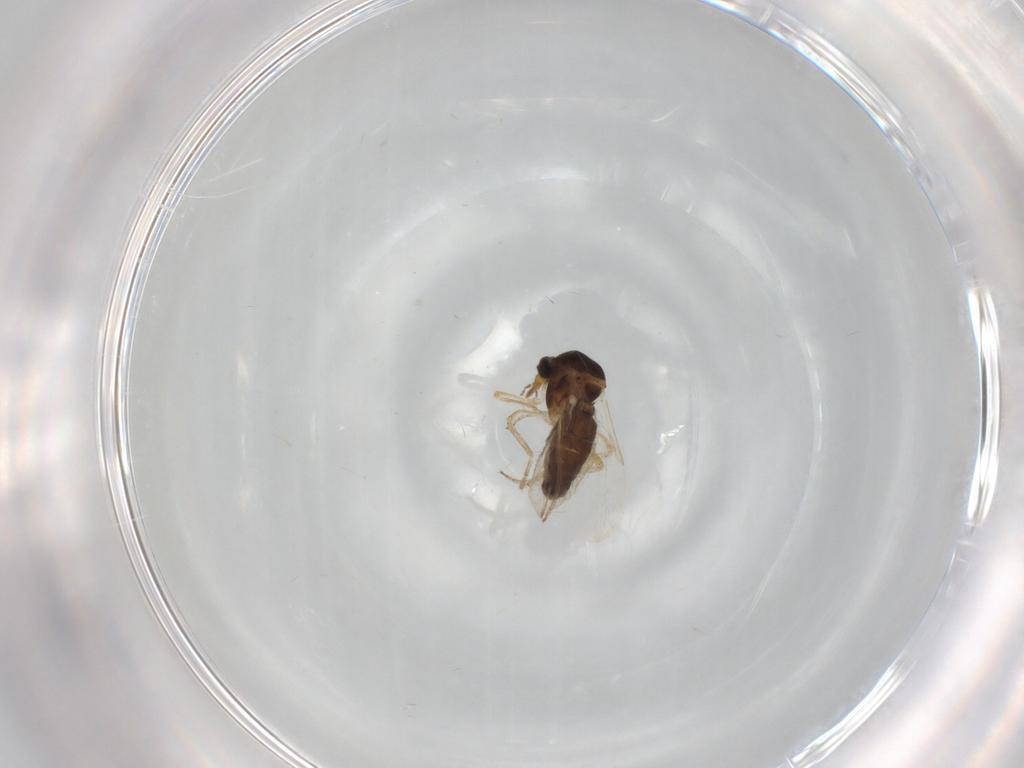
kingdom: Animalia
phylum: Arthropoda
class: Insecta
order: Diptera
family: Ceratopogonidae
